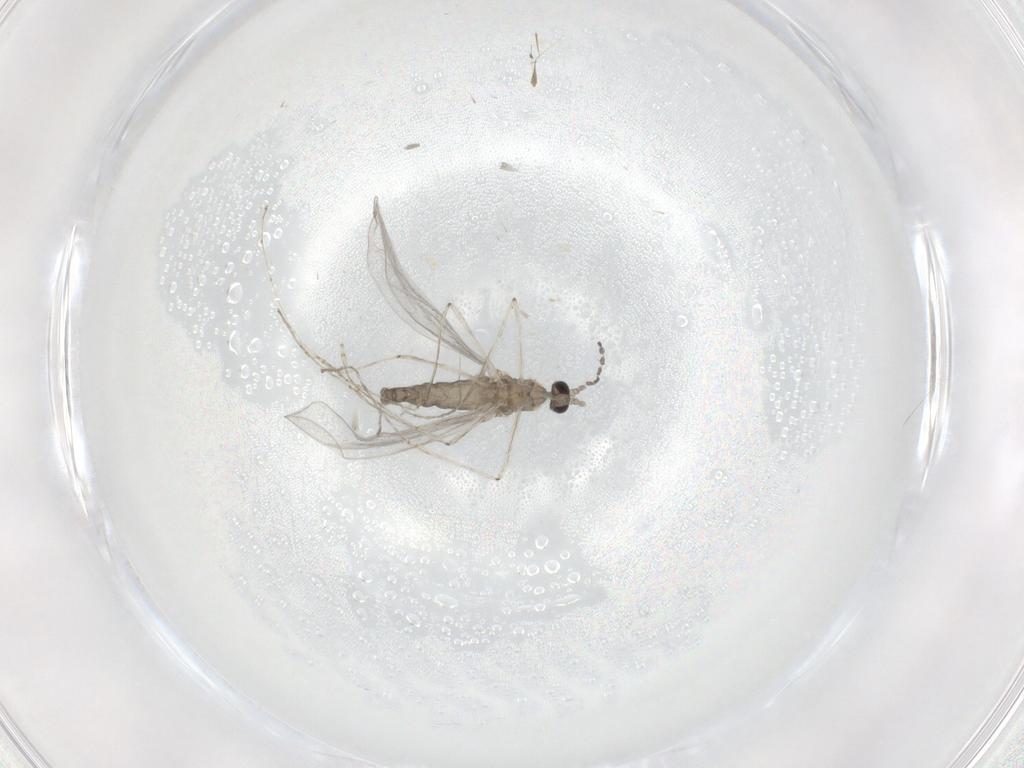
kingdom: Animalia
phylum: Arthropoda
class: Insecta
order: Diptera
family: Cecidomyiidae
